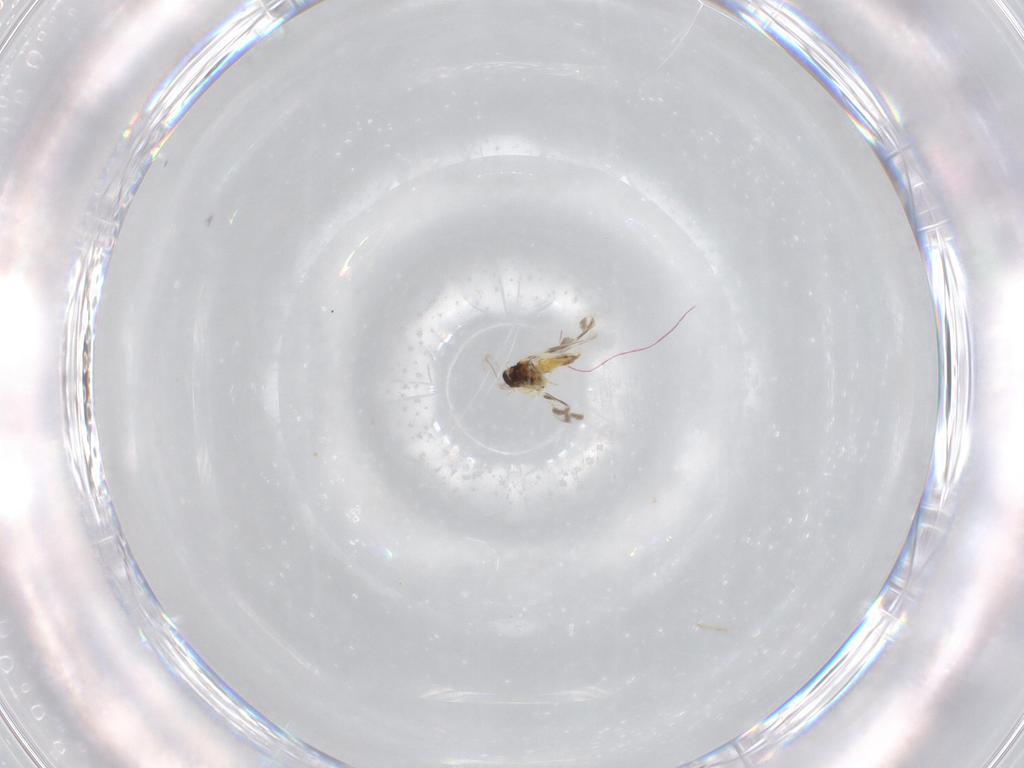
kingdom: Animalia
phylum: Arthropoda
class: Insecta
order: Hemiptera
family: Aleyrodidae
